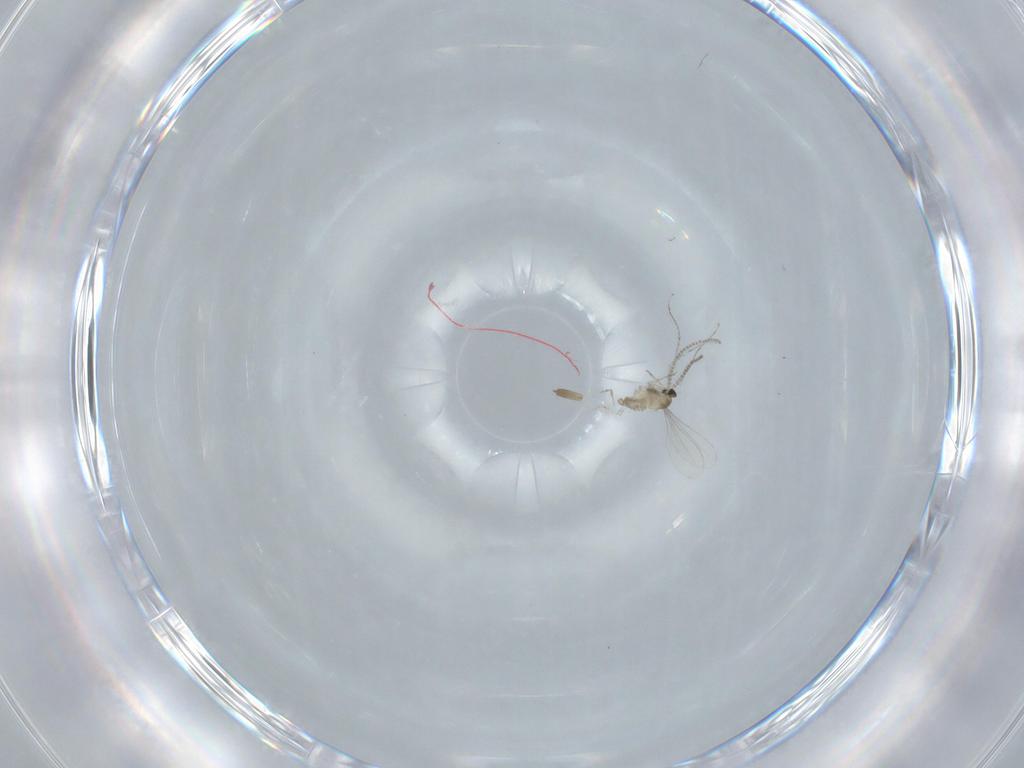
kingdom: Animalia
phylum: Arthropoda
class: Insecta
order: Diptera
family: Cecidomyiidae
